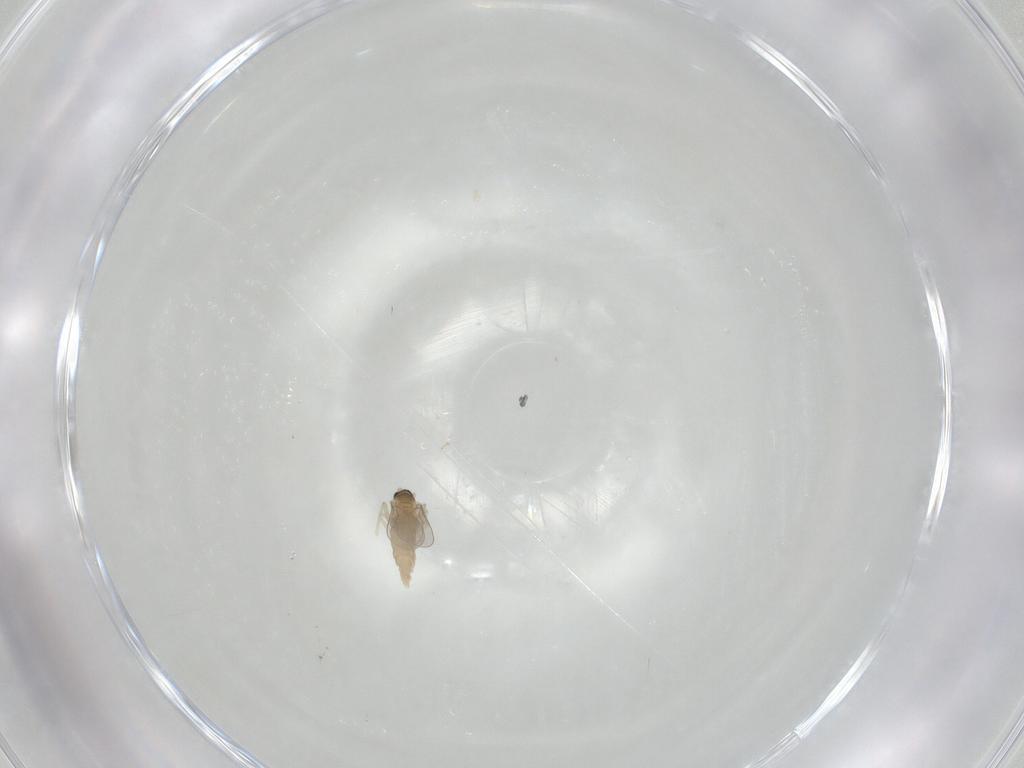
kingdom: Animalia
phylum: Arthropoda
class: Insecta
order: Diptera
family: Cecidomyiidae
